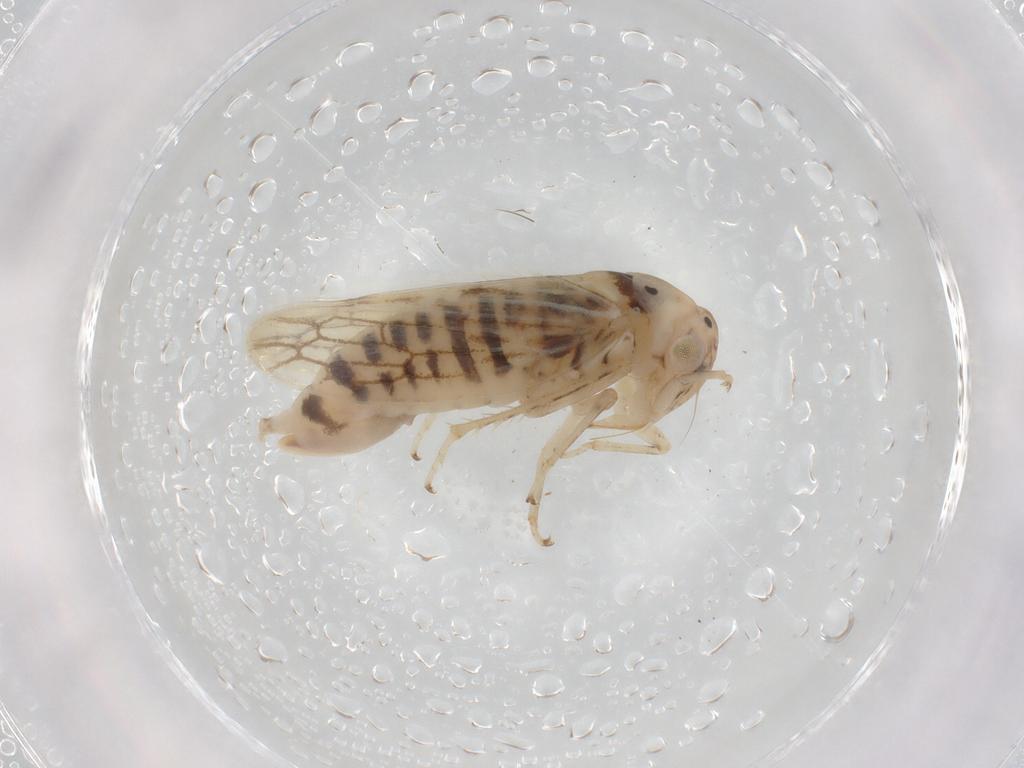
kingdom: Animalia
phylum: Arthropoda
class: Insecta
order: Hemiptera
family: Cicadellidae
